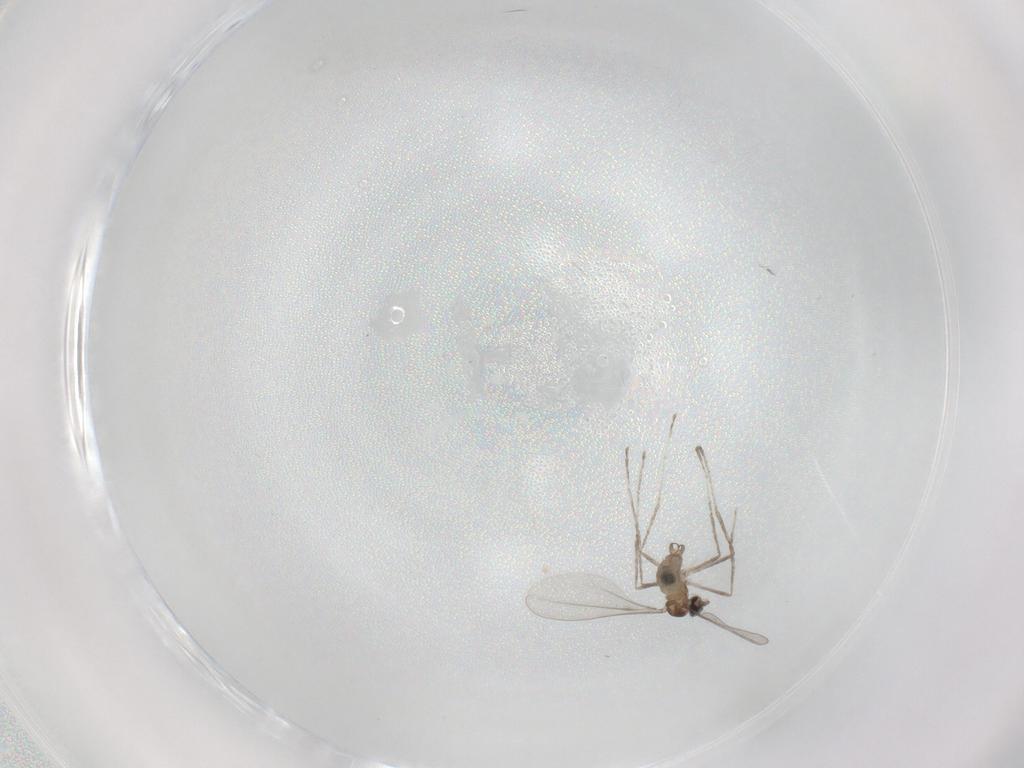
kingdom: Animalia
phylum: Arthropoda
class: Insecta
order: Diptera
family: Cecidomyiidae
